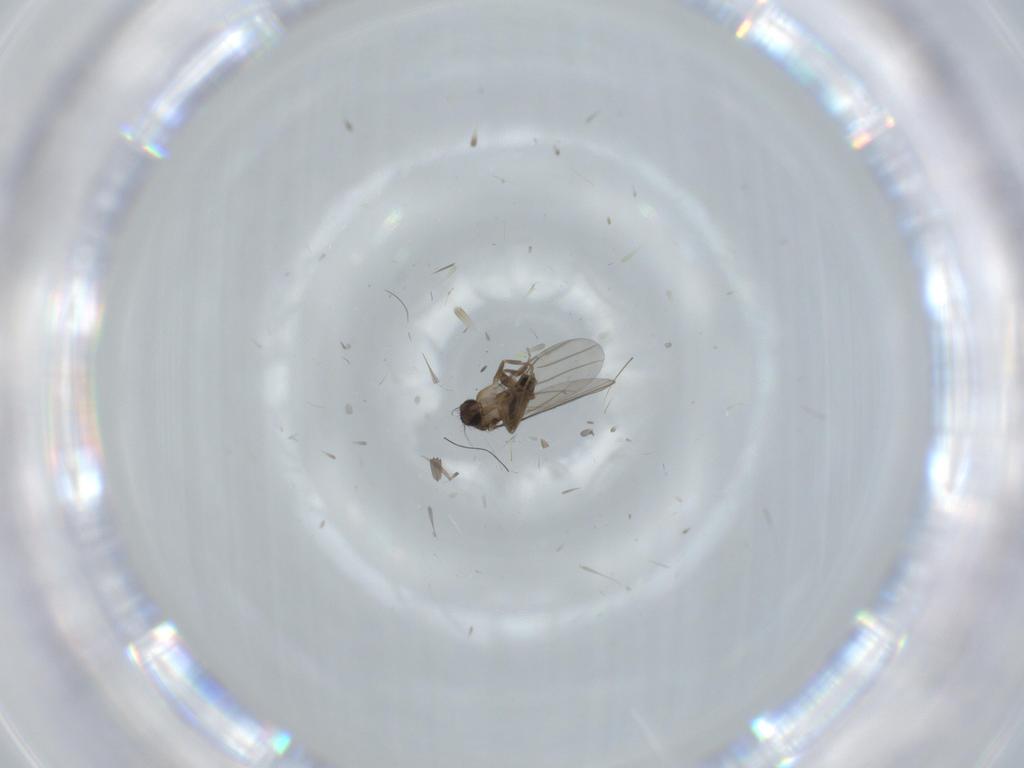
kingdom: Animalia
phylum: Arthropoda
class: Insecta
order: Diptera
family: Phoridae
